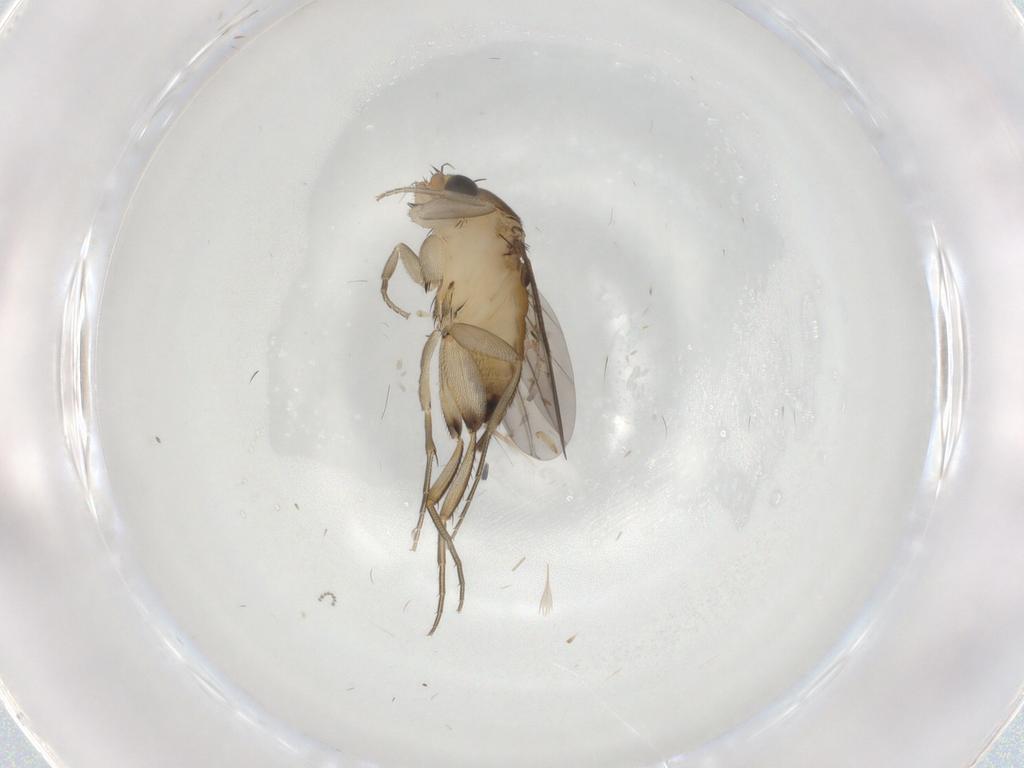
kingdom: Animalia
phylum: Arthropoda
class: Insecta
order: Diptera
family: Phoridae
